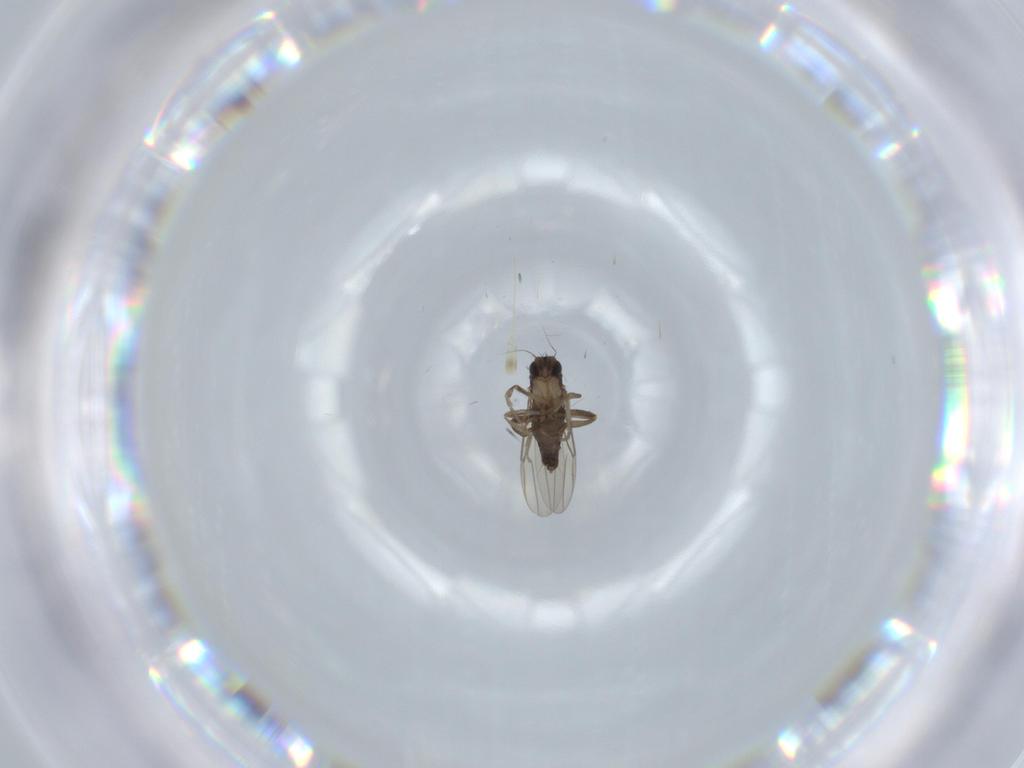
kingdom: Animalia
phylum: Arthropoda
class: Insecta
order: Diptera
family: Phoridae
